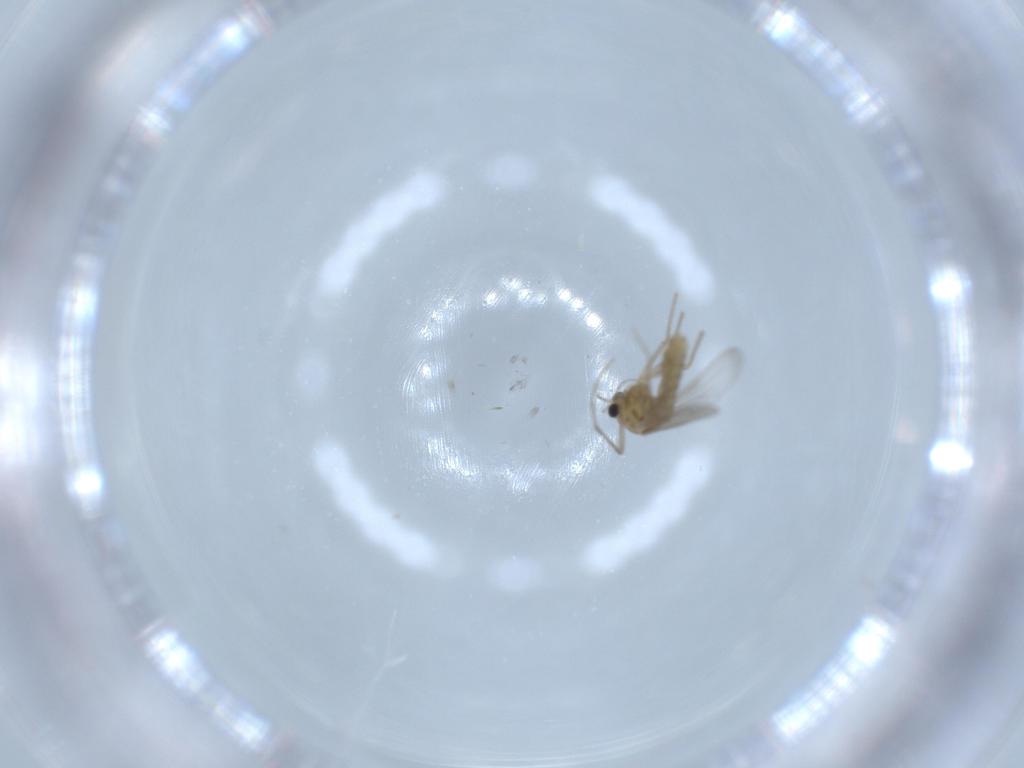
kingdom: Animalia
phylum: Arthropoda
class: Insecta
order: Diptera
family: Chironomidae
